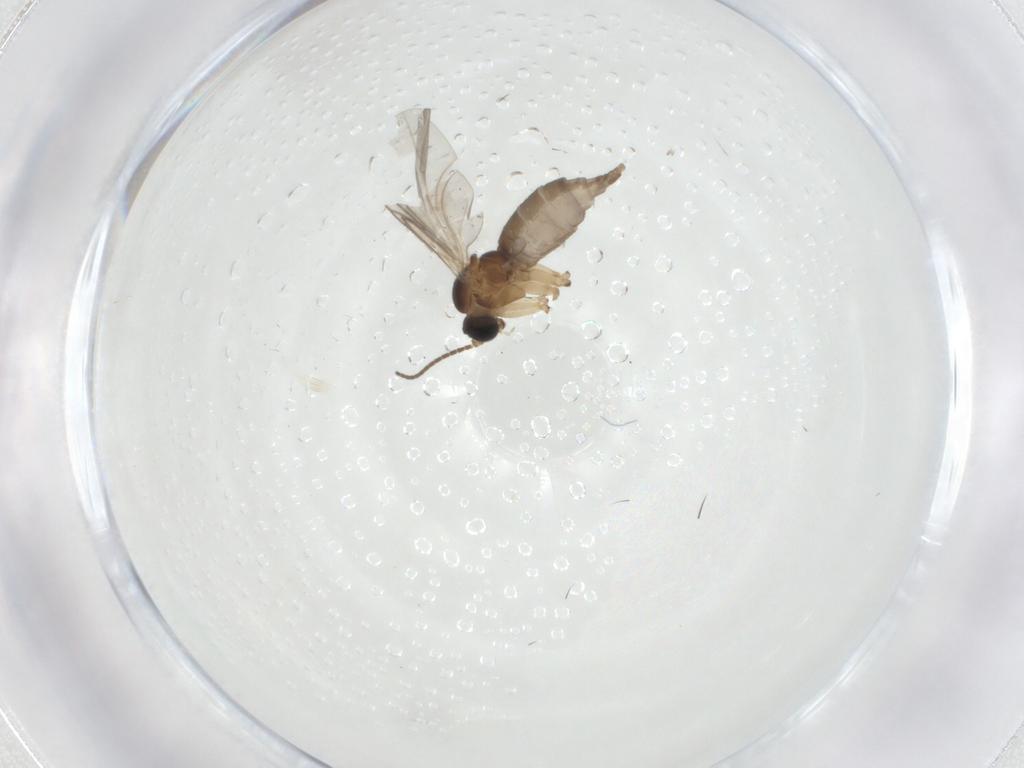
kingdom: Animalia
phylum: Arthropoda
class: Insecta
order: Diptera
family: Sciaridae
